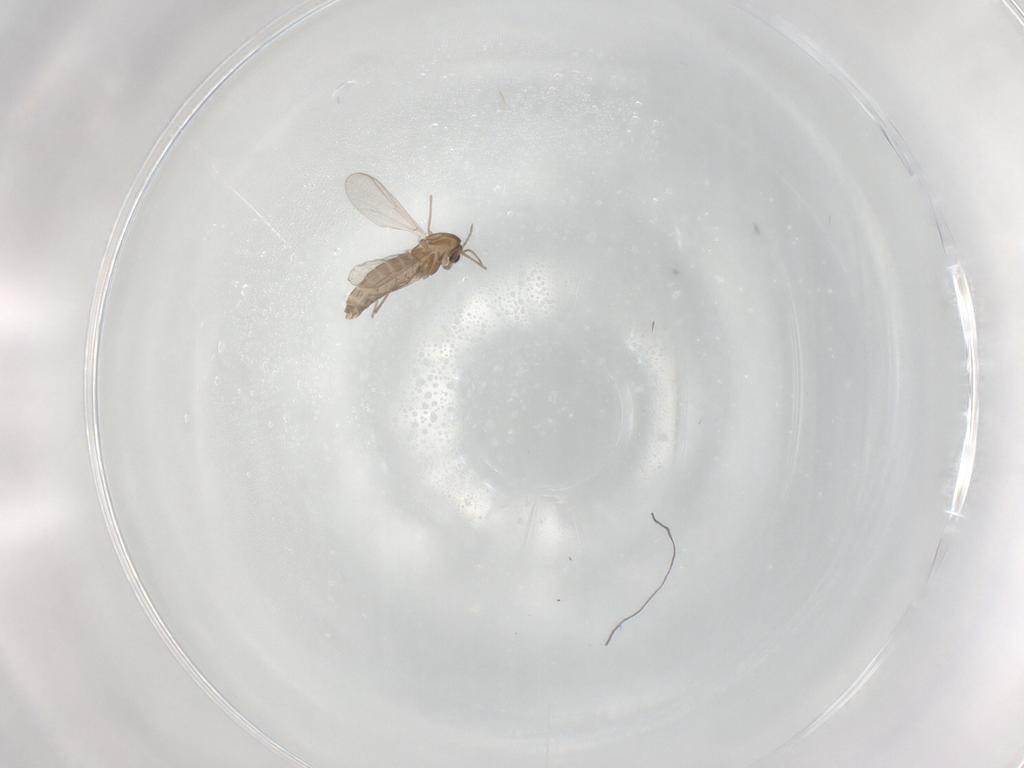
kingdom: Animalia
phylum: Arthropoda
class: Insecta
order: Diptera
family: Chironomidae
